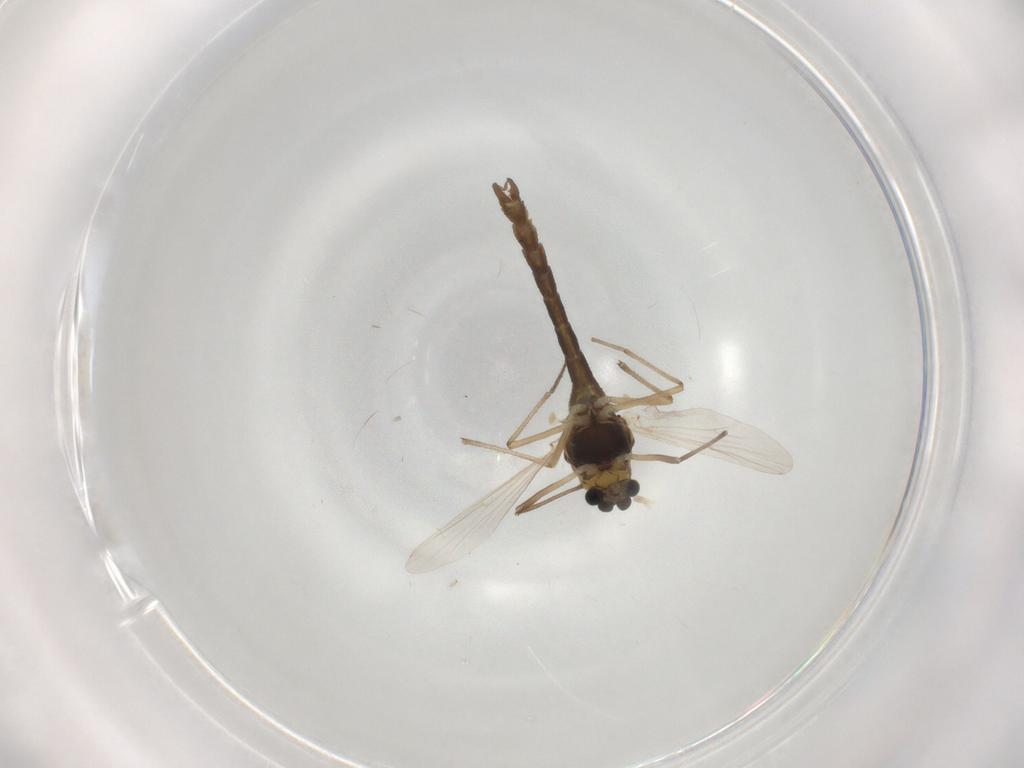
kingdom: Animalia
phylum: Arthropoda
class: Insecta
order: Diptera
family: Chironomidae
